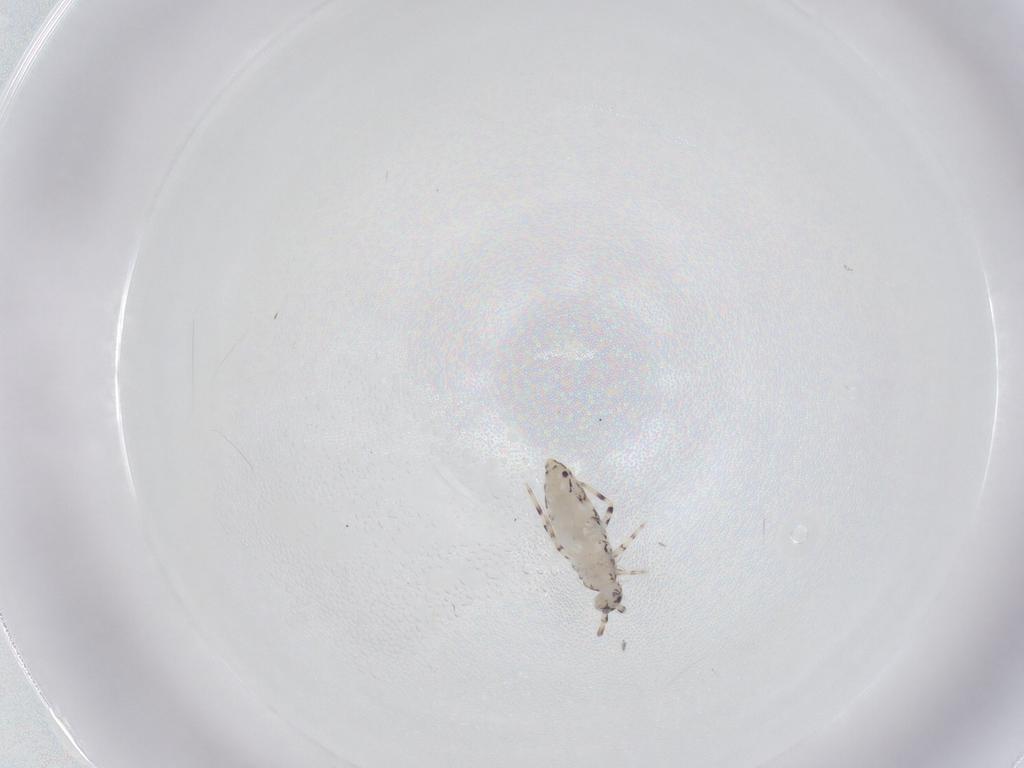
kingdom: Animalia
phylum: Arthropoda
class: Collembola
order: Entomobryomorpha
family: Entomobryidae
